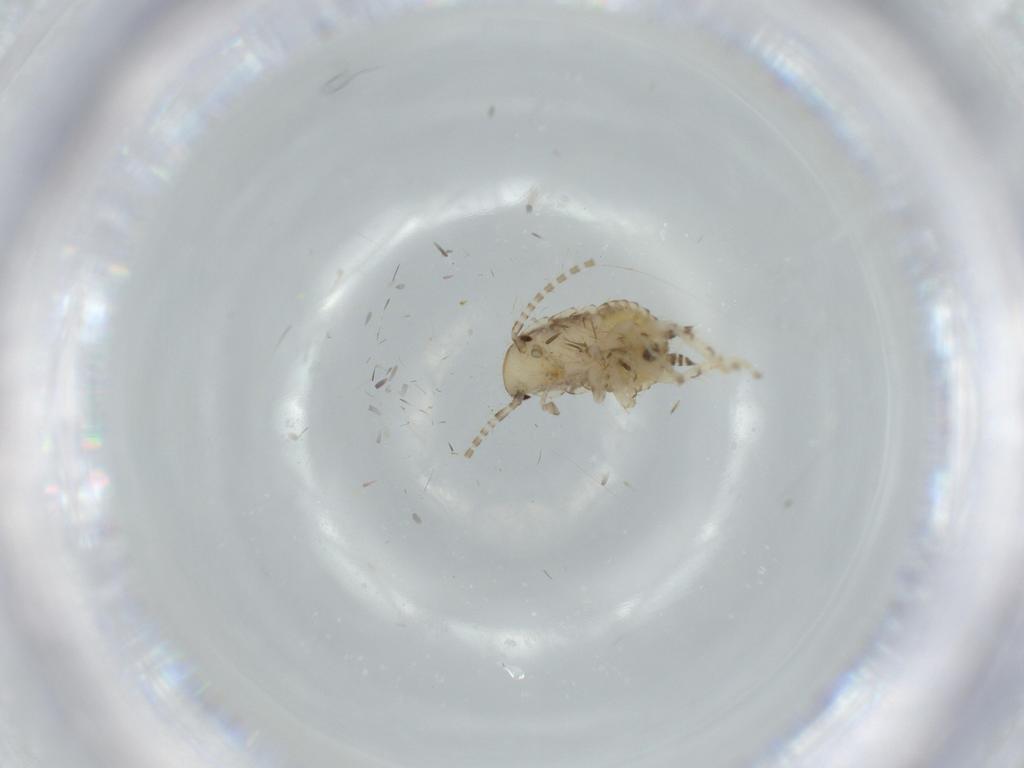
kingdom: Animalia
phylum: Arthropoda
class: Insecta
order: Blattodea
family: Ectobiidae
